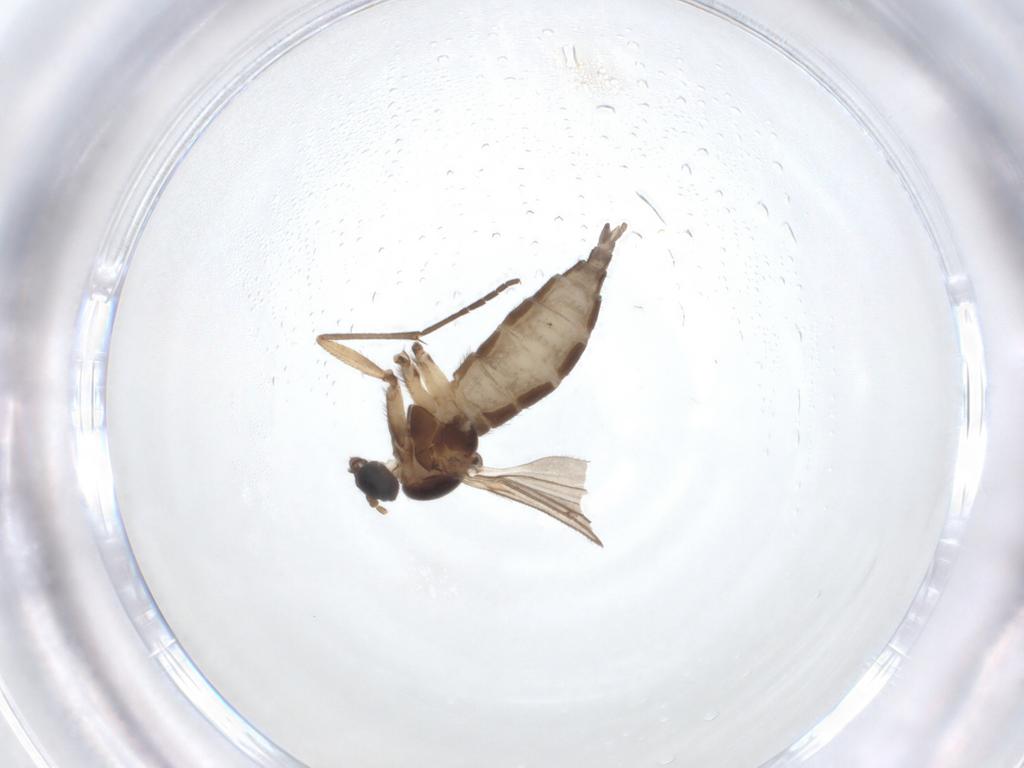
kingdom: Animalia
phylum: Arthropoda
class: Insecta
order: Diptera
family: Sciaridae
